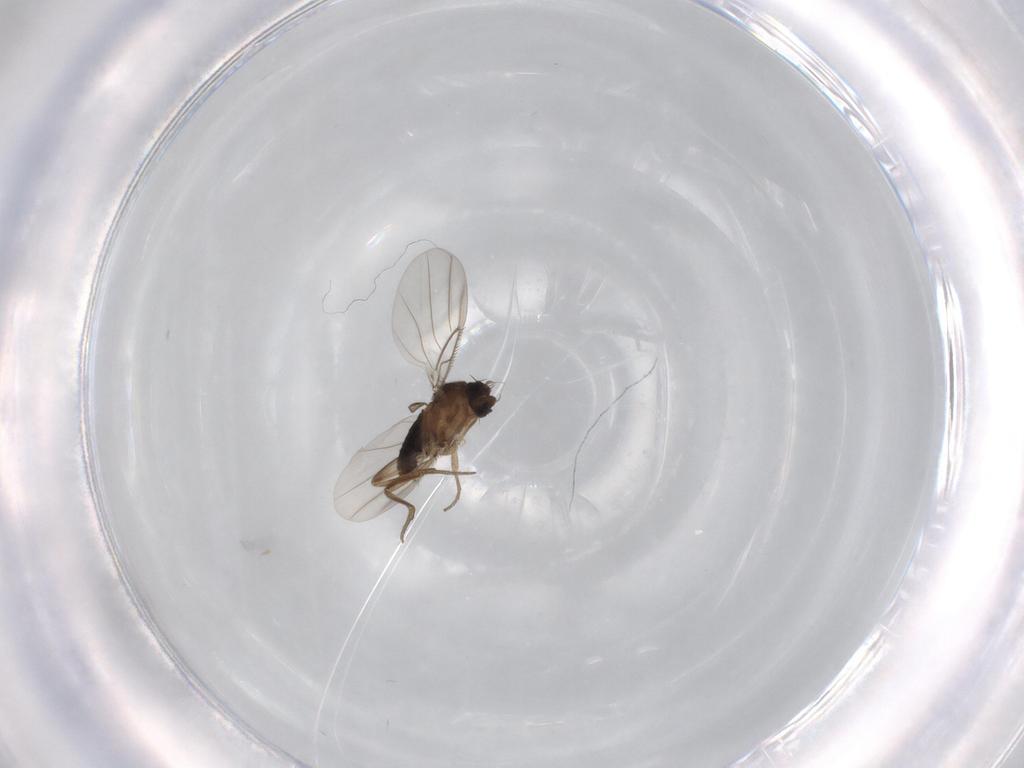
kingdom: Animalia
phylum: Arthropoda
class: Insecta
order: Diptera
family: Phoridae
